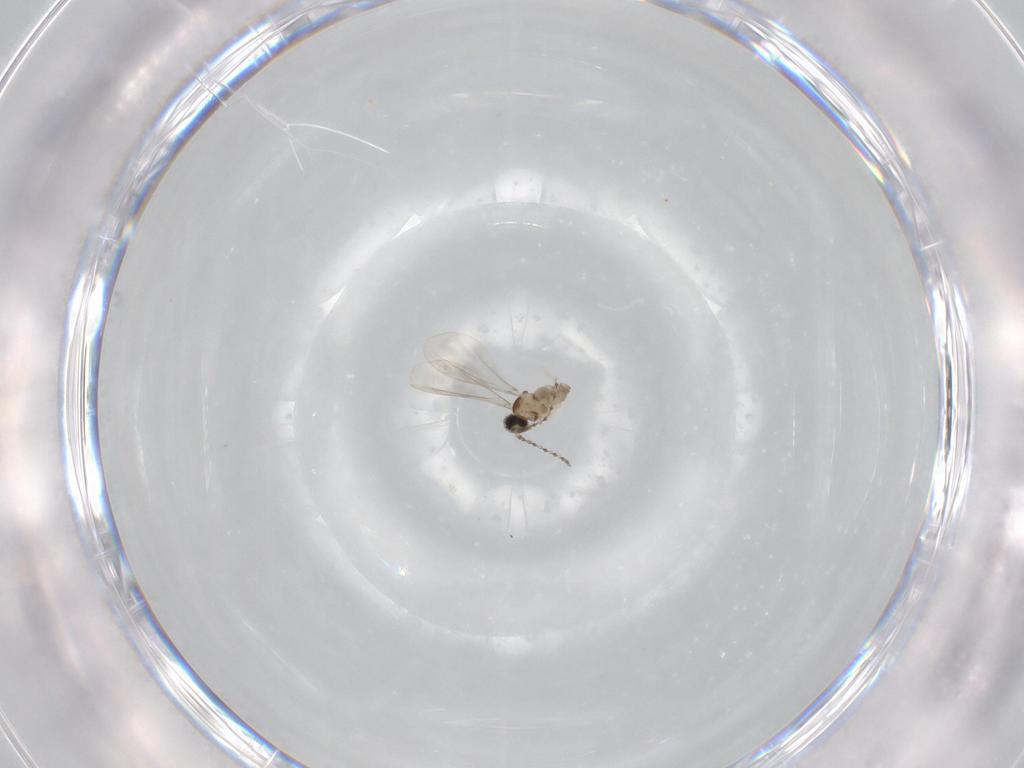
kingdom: Animalia
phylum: Arthropoda
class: Insecta
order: Diptera
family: Cecidomyiidae
